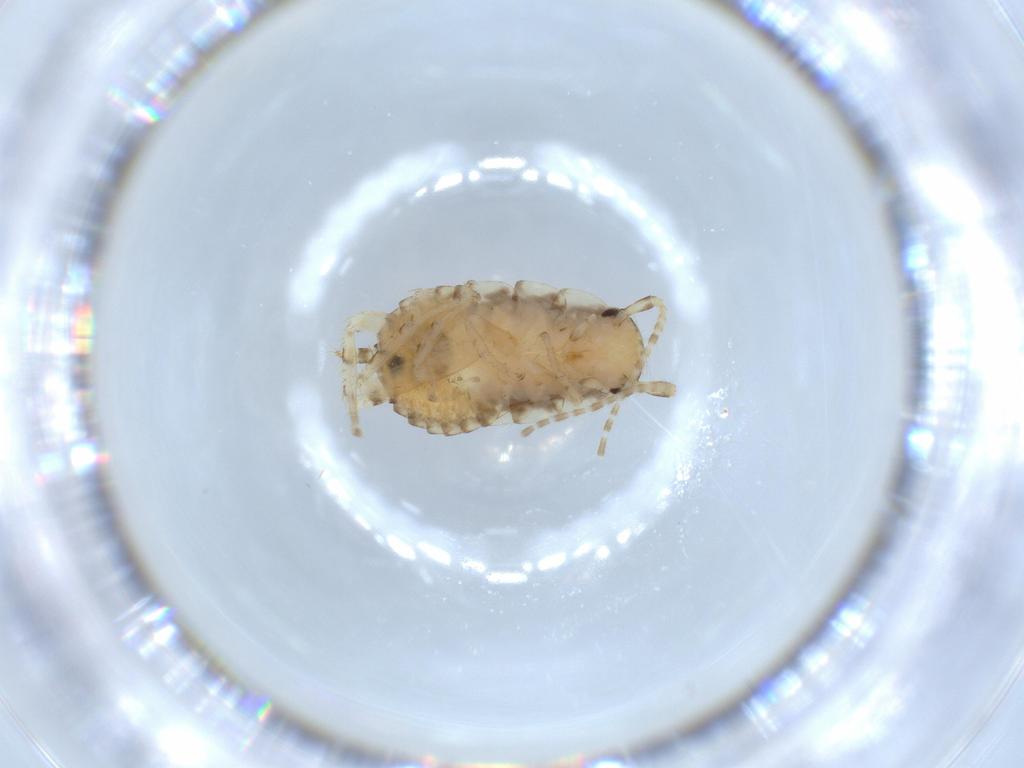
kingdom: Animalia
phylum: Arthropoda
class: Insecta
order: Blattodea
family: Ectobiidae
